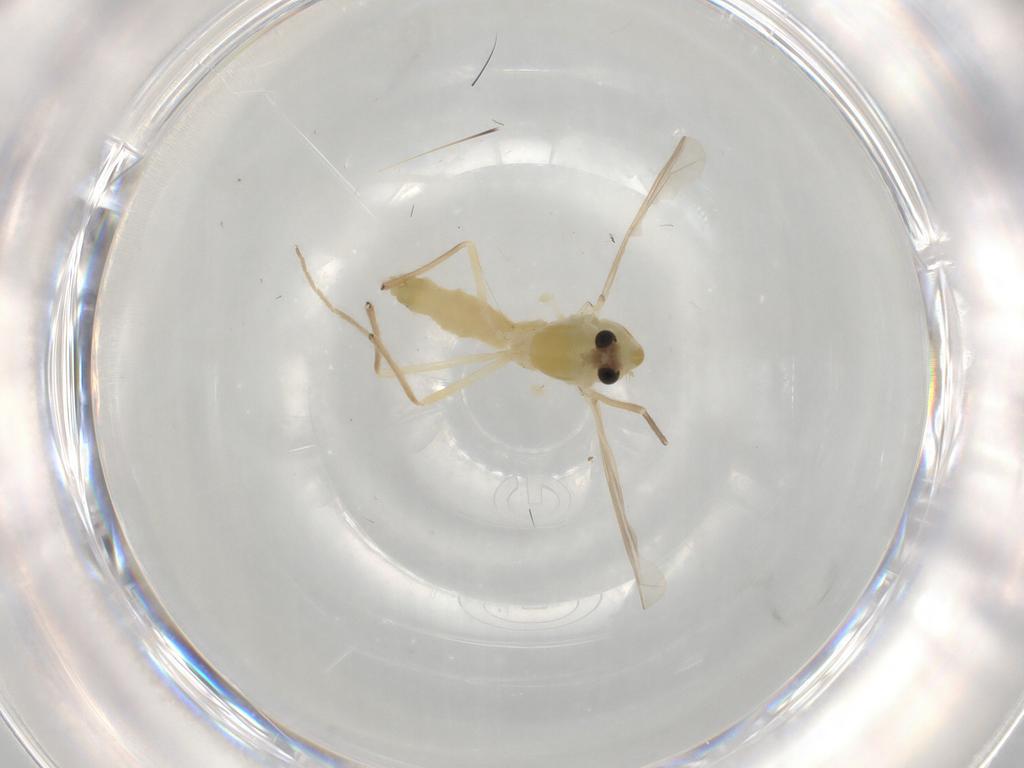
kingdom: Animalia
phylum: Arthropoda
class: Insecta
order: Diptera
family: Chironomidae
